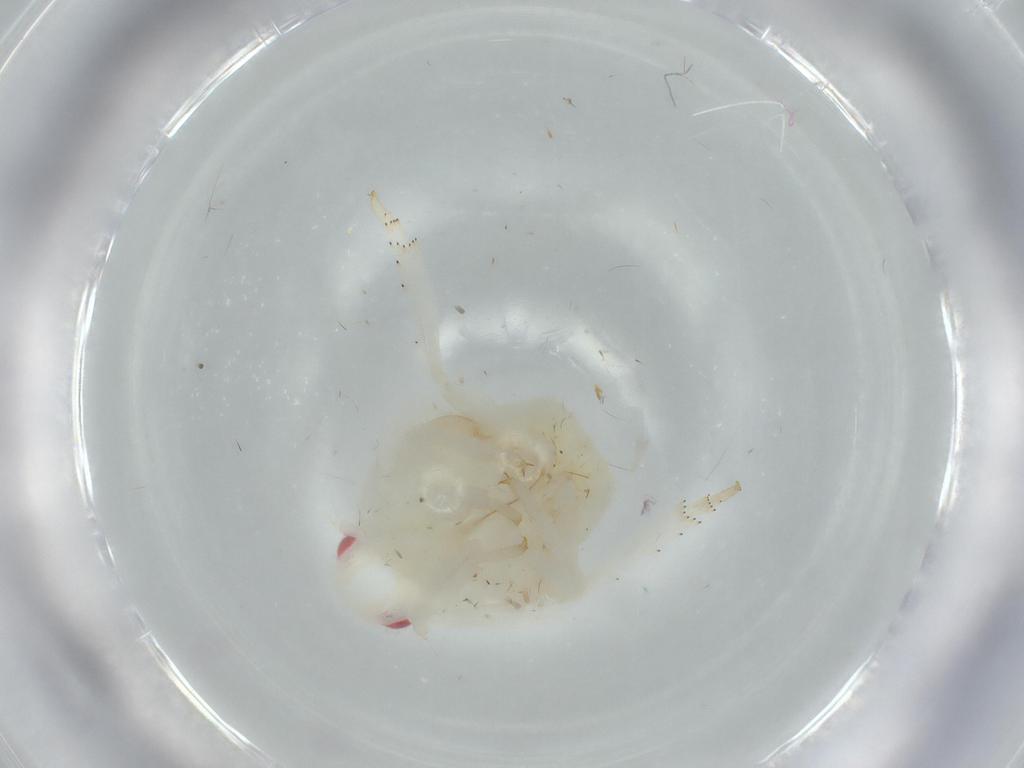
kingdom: Animalia
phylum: Arthropoda
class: Insecta
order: Hemiptera
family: Flatidae
